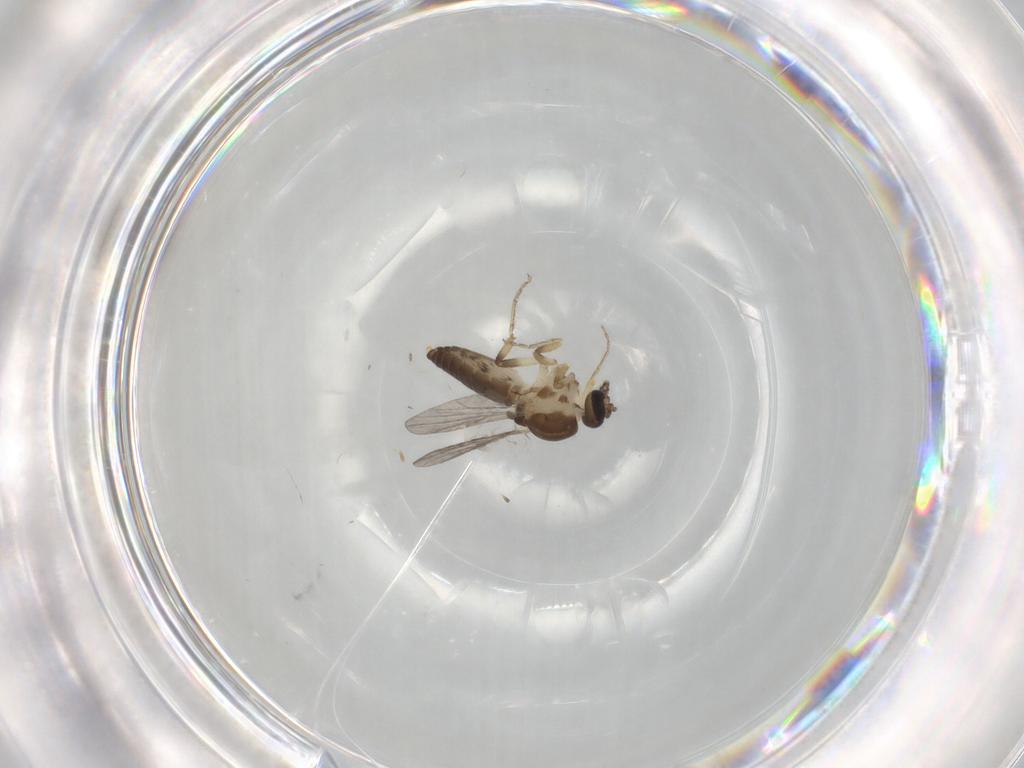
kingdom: Animalia
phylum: Arthropoda
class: Insecta
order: Diptera
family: Ceratopogonidae
